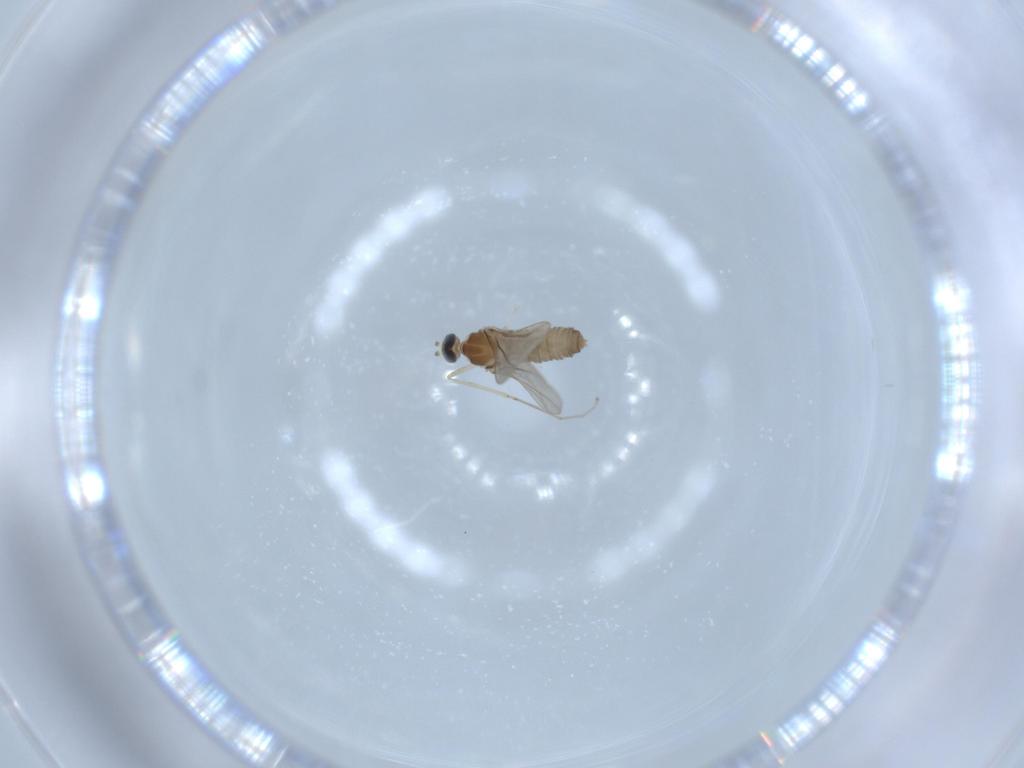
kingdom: Animalia
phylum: Arthropoda
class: Insecta
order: Diptera
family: Cecidomyiidae
